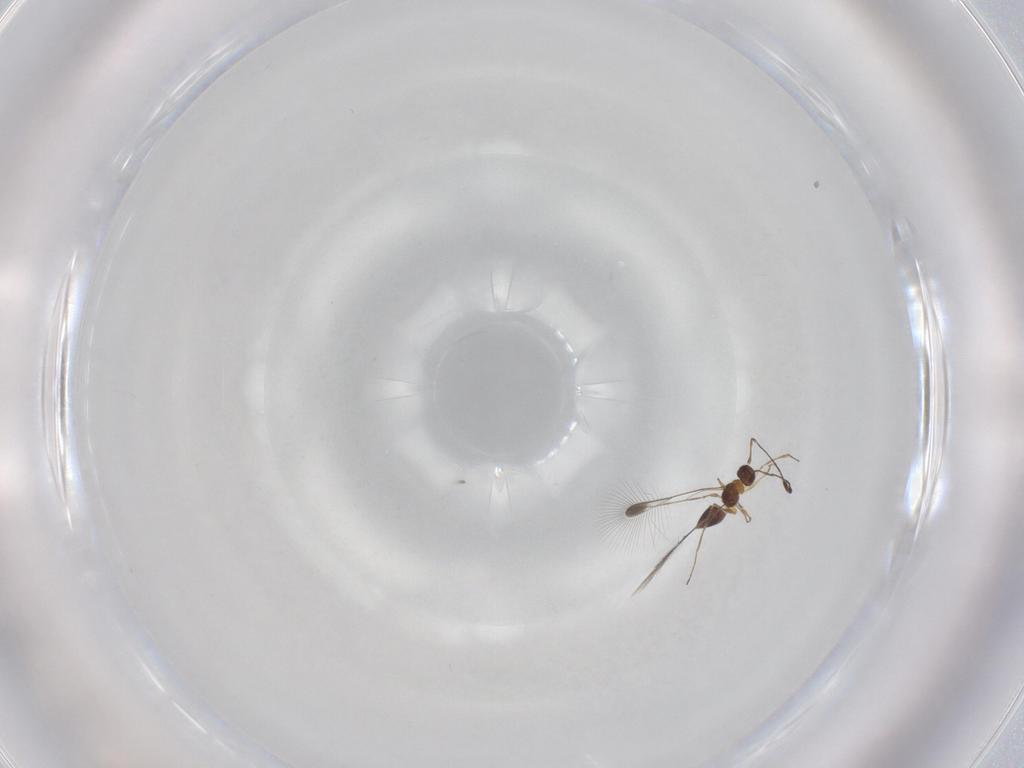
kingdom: Animalia
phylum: Arthropoda
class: Insecta
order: Hymenoptera
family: Mymaridae
